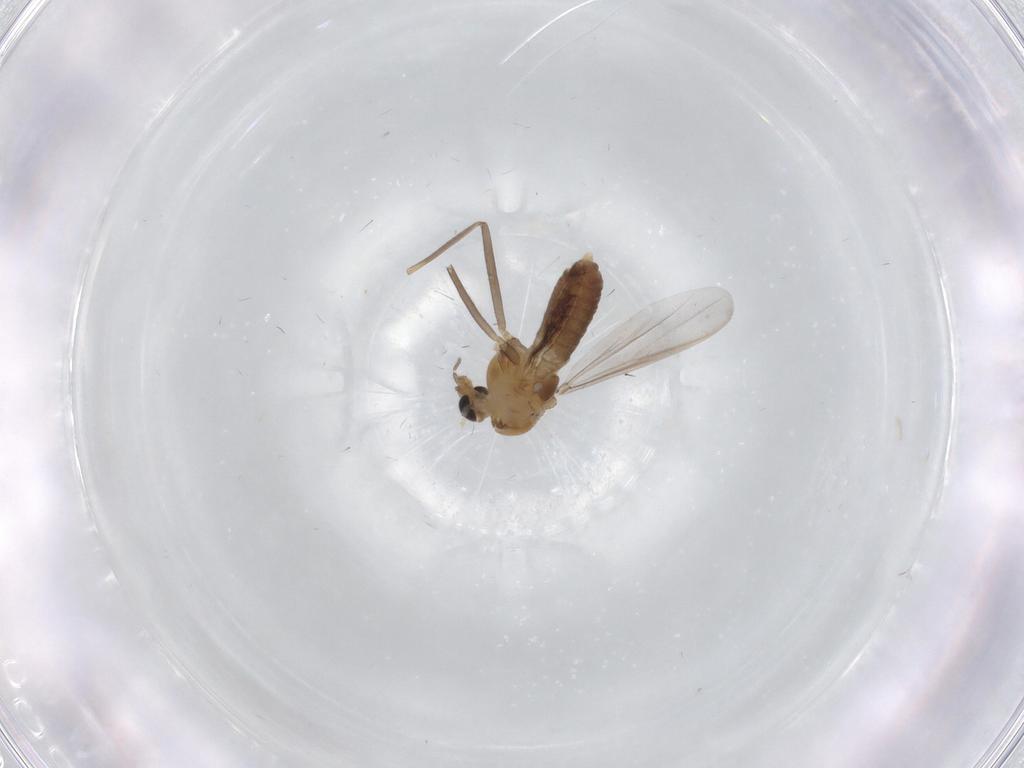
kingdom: Animalia
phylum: Arthropoda
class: Insecta
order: Diptera
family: Chironomidae
